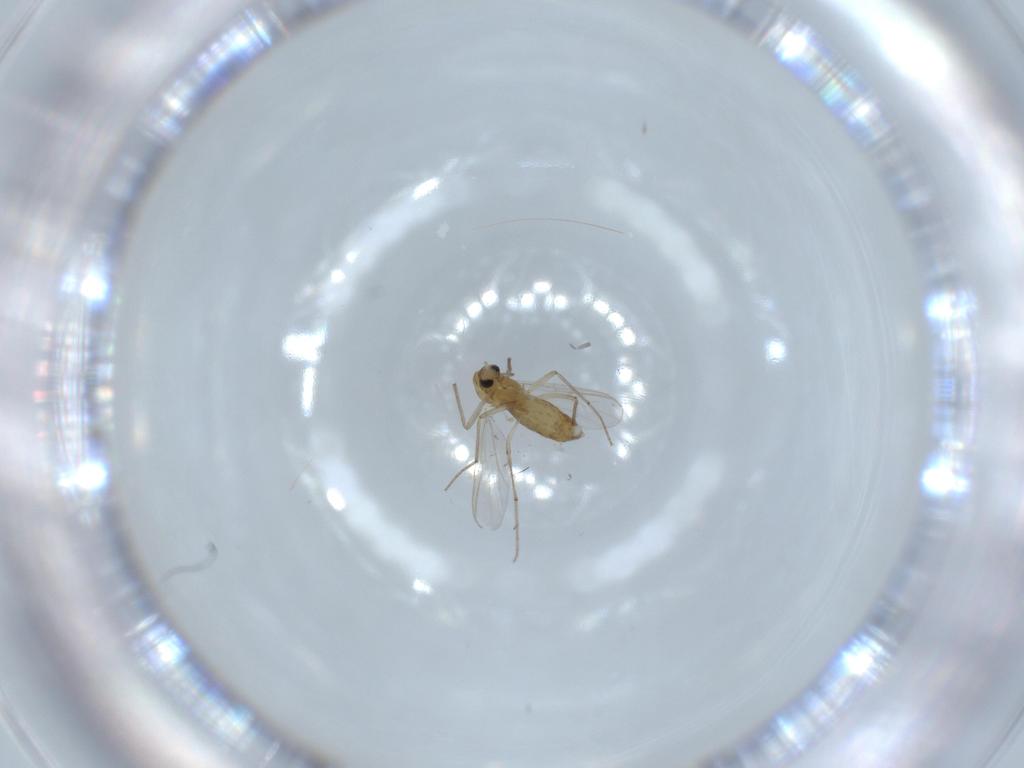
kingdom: Animalia
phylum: Arthropoda
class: Insecta
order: Diptera
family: Chironomidae
